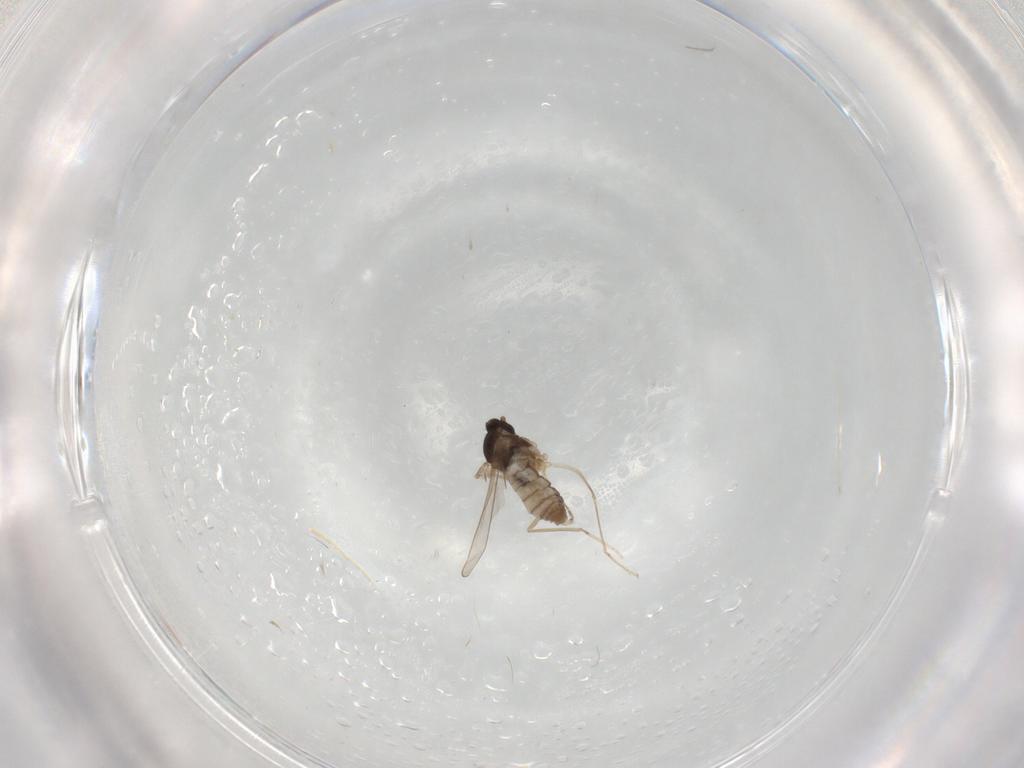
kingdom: Animalia
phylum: Arthropoda
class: Insecta
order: Diptera
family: Cecidomyiidae
